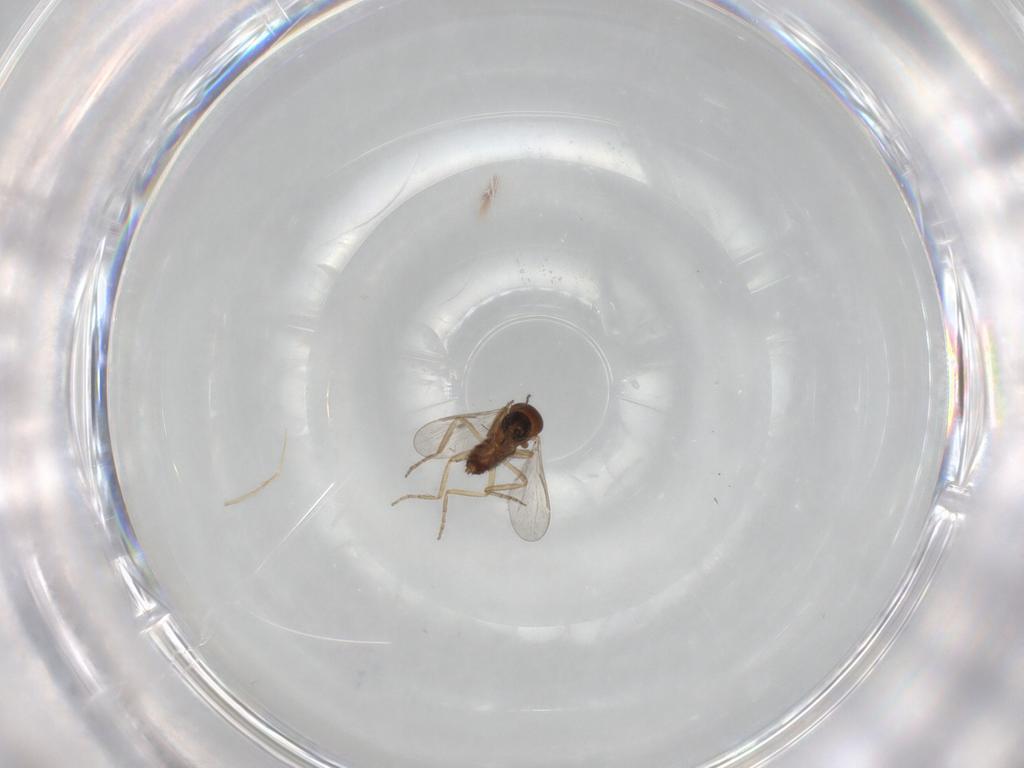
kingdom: Animalia
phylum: Arthropoda
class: Insecta
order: Diptera
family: Ceratopogonidae
